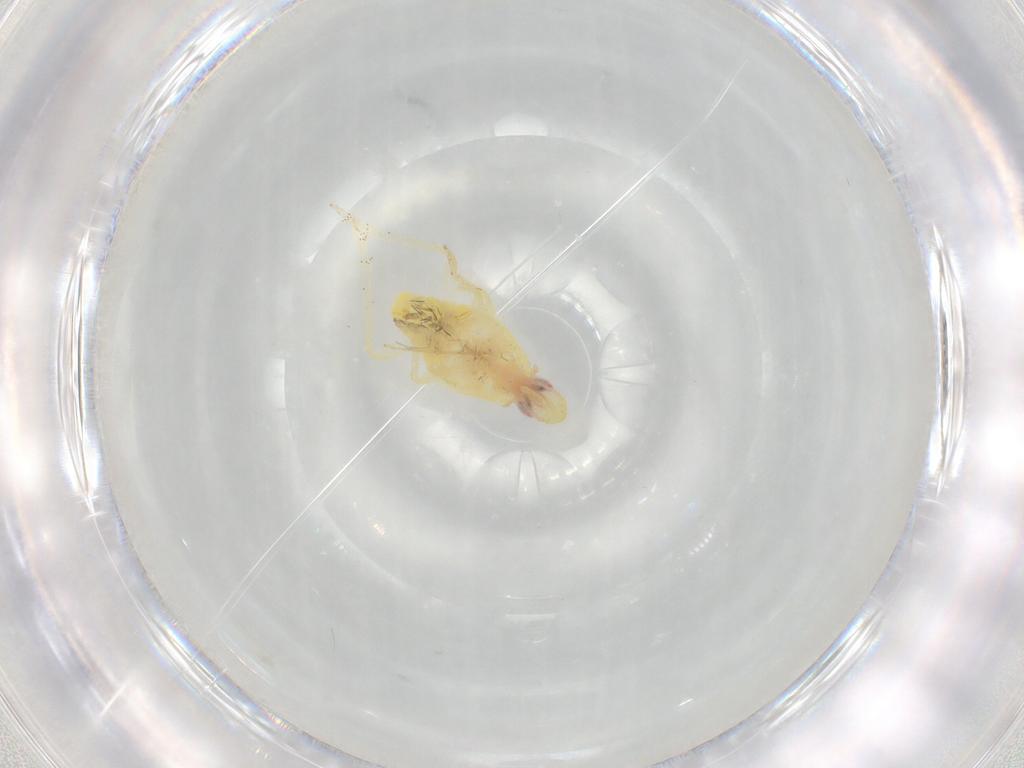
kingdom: Animalia
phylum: Arthropoda
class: Insecta
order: Hemiptera
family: Tropiduchidae
